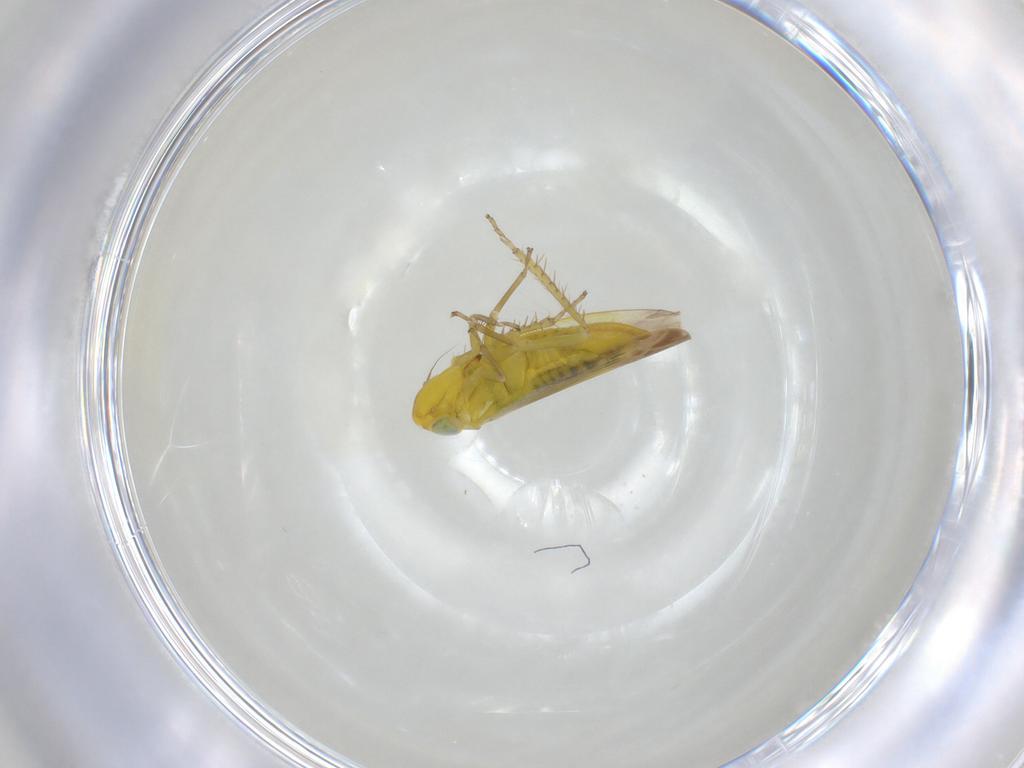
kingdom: Animalia
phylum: Arthropoda
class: Insecta
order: Hemiptera
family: Cicadellidae
